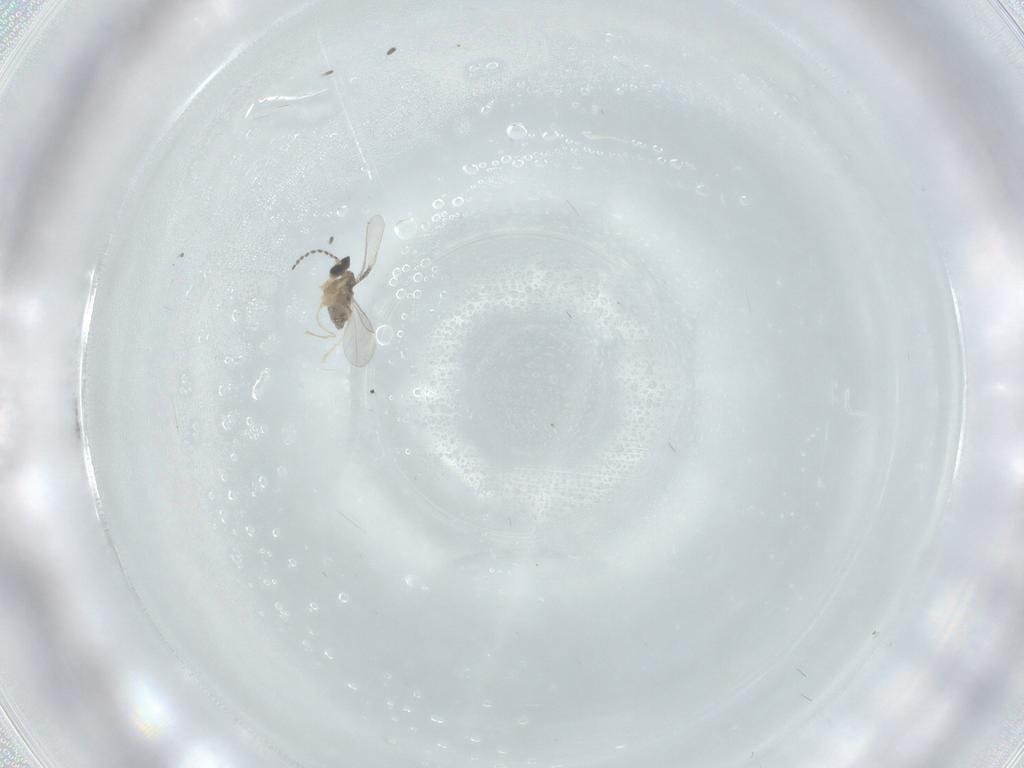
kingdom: Animalia
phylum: Arthropoda
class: Insecta
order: Diptera
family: Cecidomyiidae
